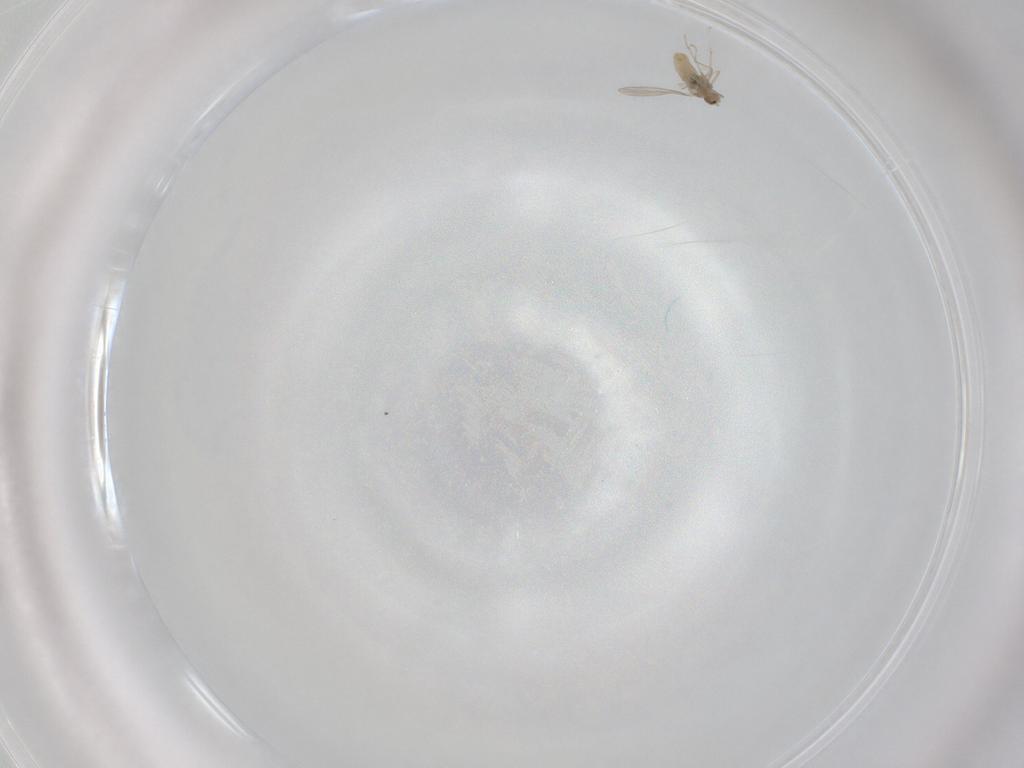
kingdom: Animalia
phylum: Arthropoda
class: Insecta
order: Diptera
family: Cecidomyiidae
